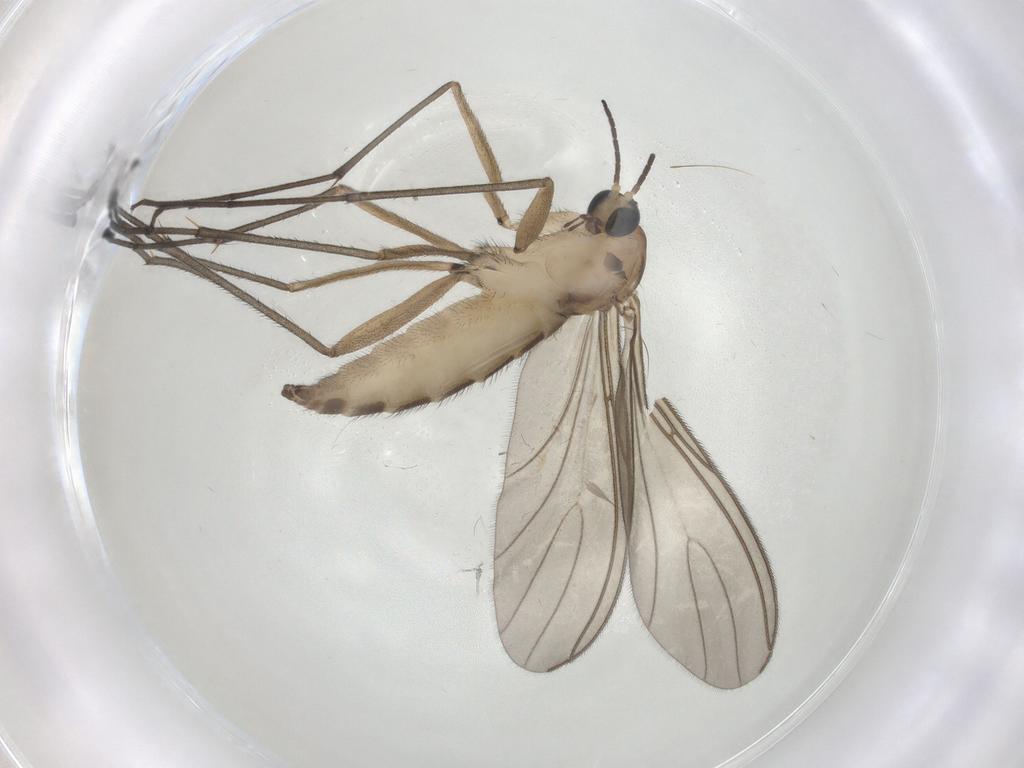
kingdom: Animalia
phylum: Arthropoda
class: Insecta
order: Diptera
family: Sciaridae
